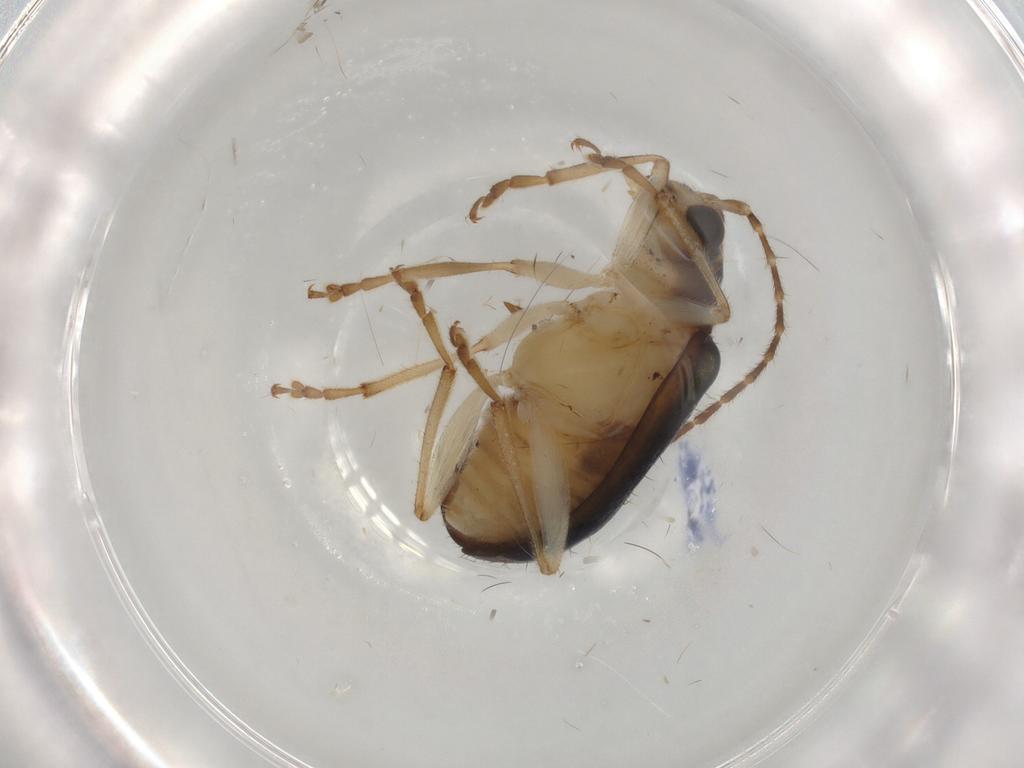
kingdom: Animalia
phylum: Arthropoda
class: Insecta
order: Coleoptera
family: Chrysomelidae
